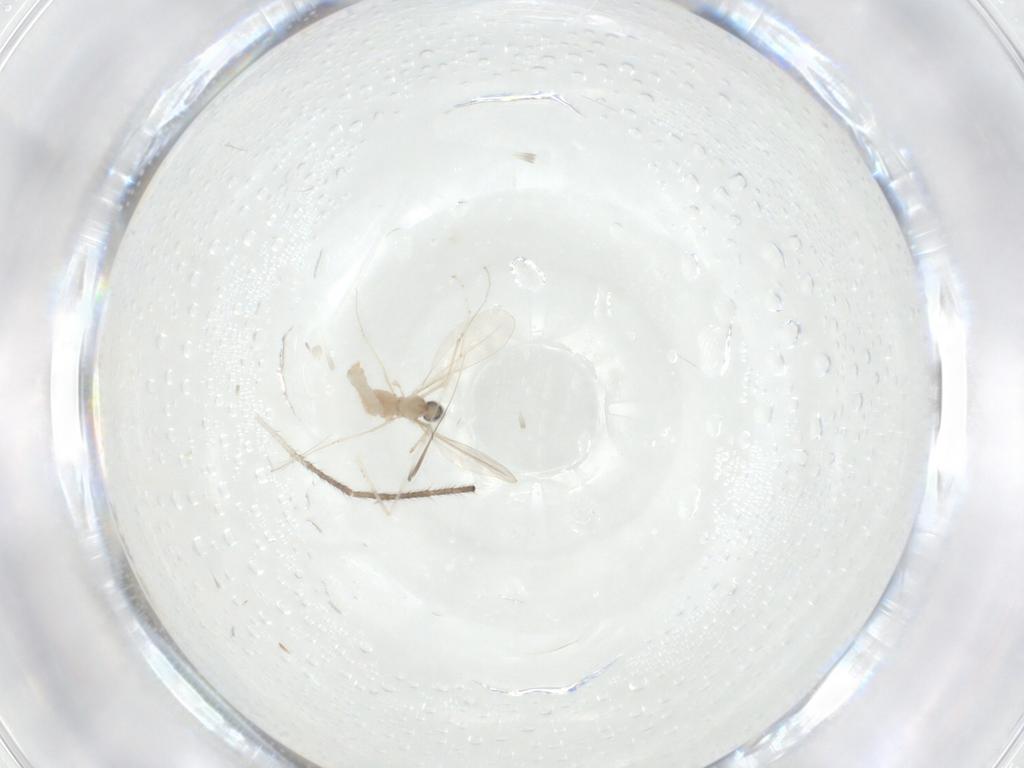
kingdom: Animalia
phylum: Arthropoda
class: Insecta
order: Diptera
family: Cecidomyiidae
